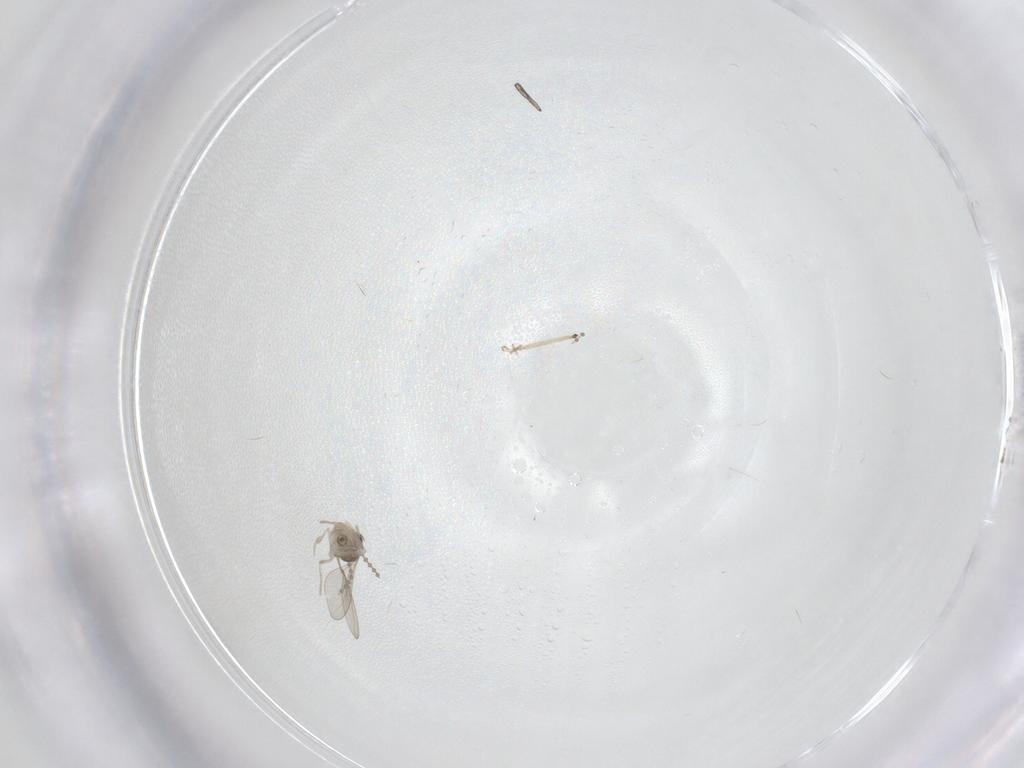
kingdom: Animalia
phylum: Arthropoda
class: Insecta
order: Diptera
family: Cecidomyiidae
